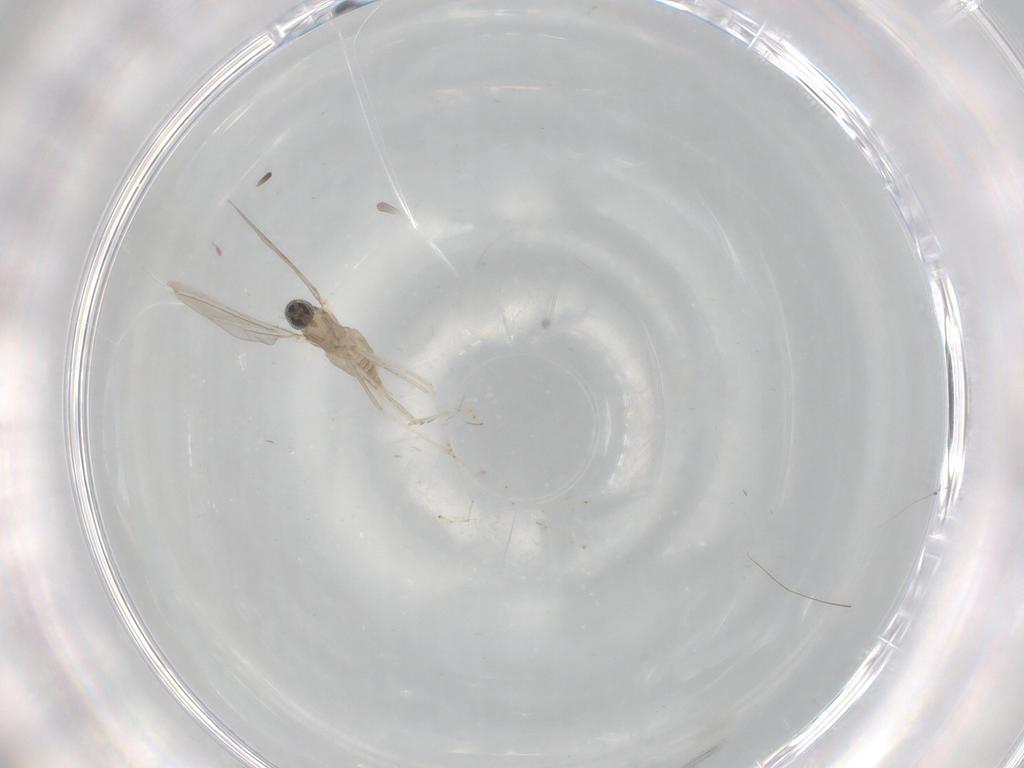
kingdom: Animalia
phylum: Arthropoda
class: Insecta
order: Diptera
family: Cecidomyiidae
